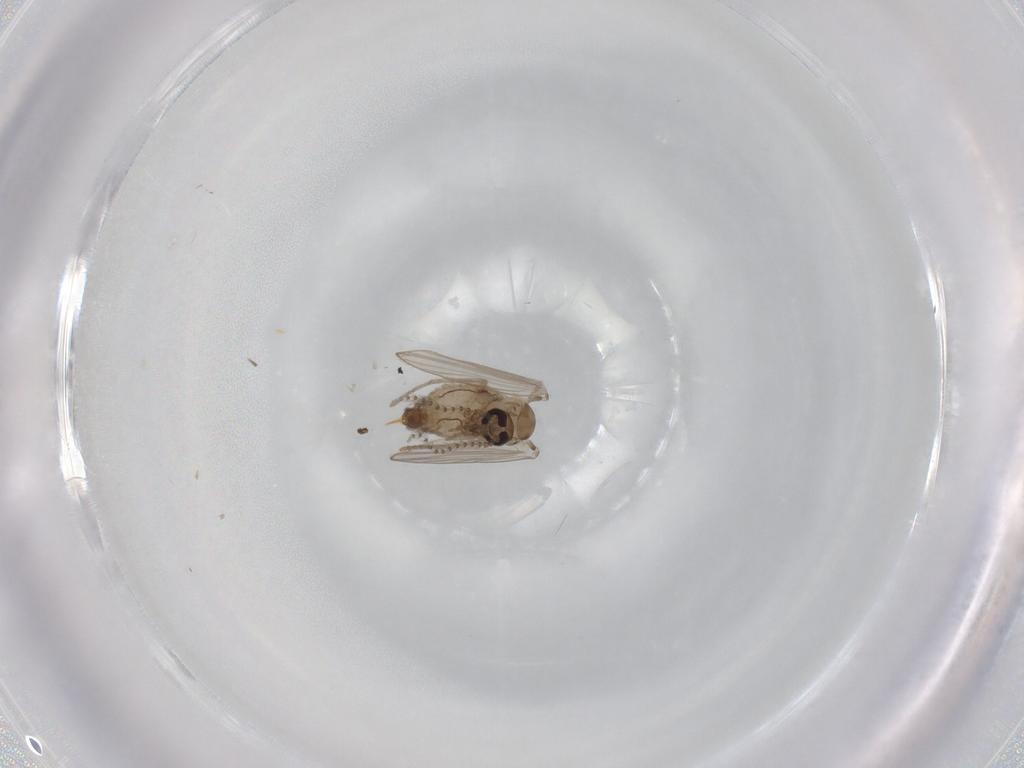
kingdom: Animalia
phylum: Arthropoda
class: Insecta
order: Diptera
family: Psychodidae
